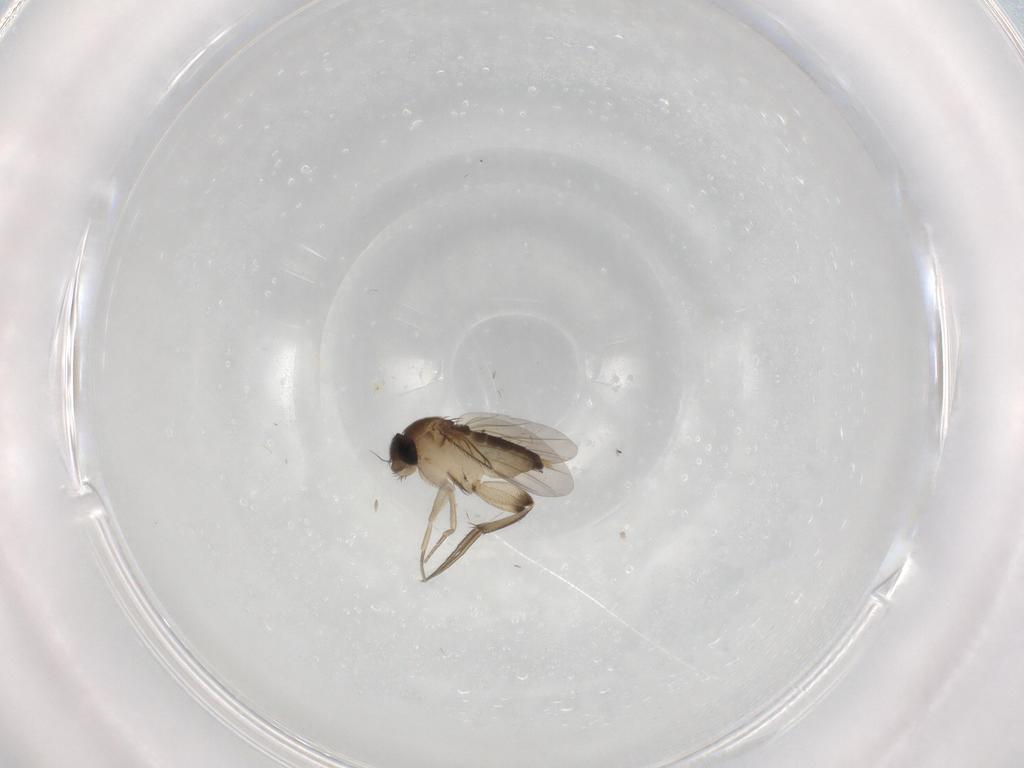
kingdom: Animalia
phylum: Arthropoda
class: Insecta
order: Diptera
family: Phoridae
